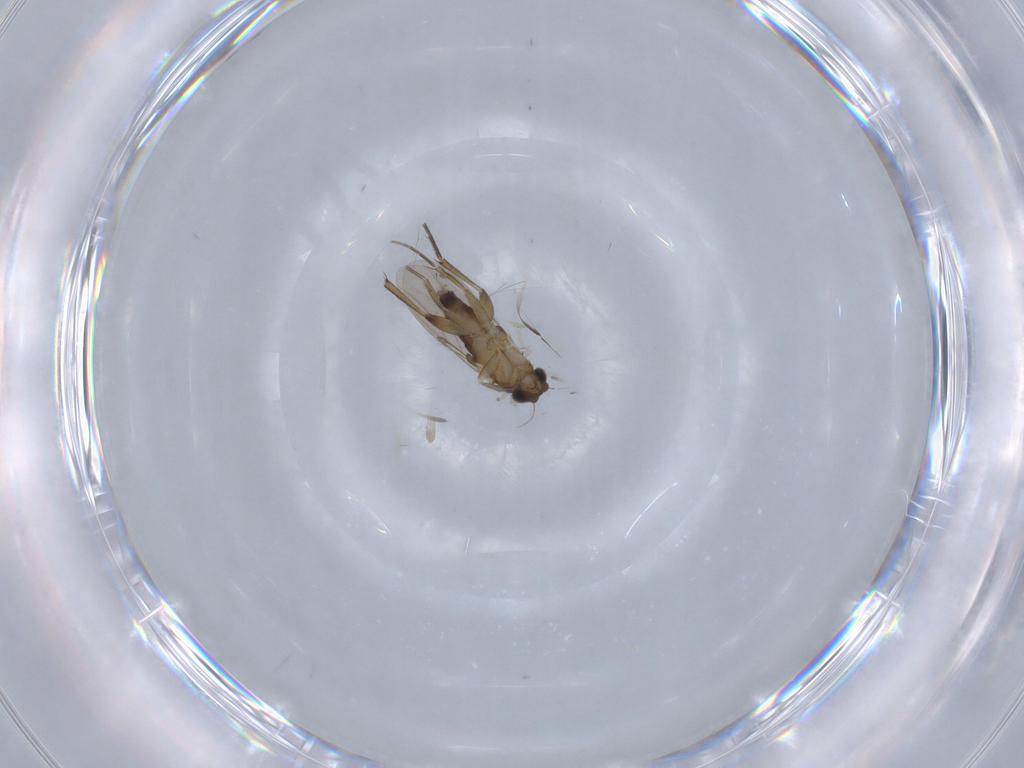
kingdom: Animalia
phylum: Arthropoda
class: Insecta
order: Diptera
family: Phoridae
